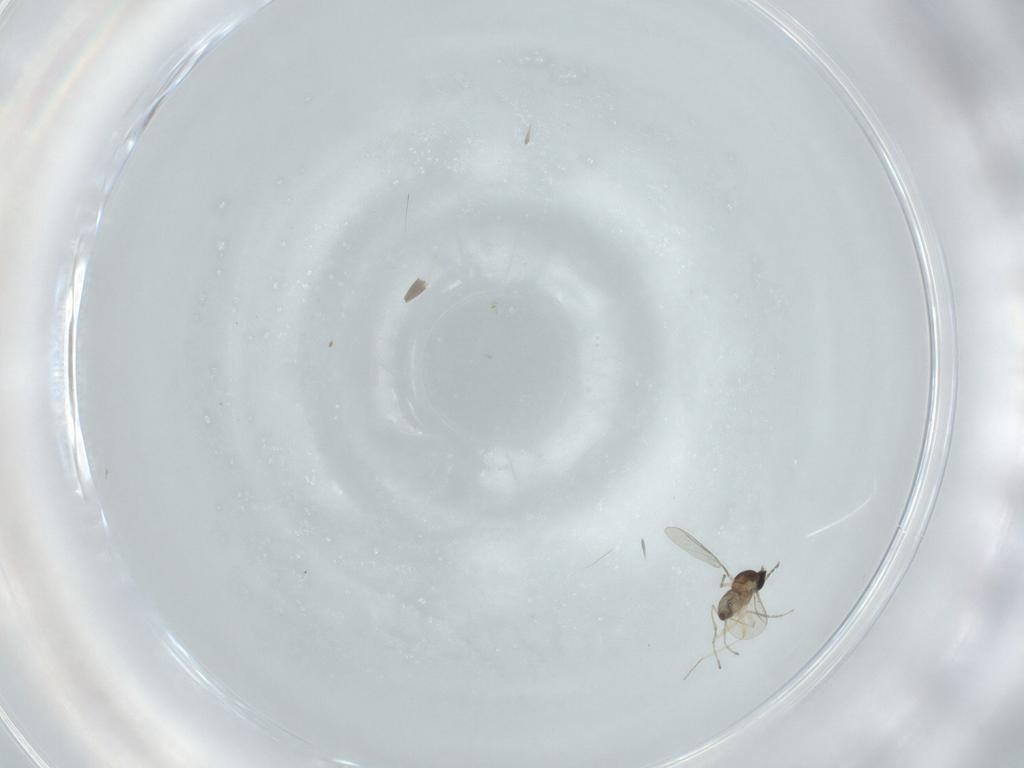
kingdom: Animalia
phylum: Arthropoda
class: Insecta
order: Diptera
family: Cecidomyiidae
